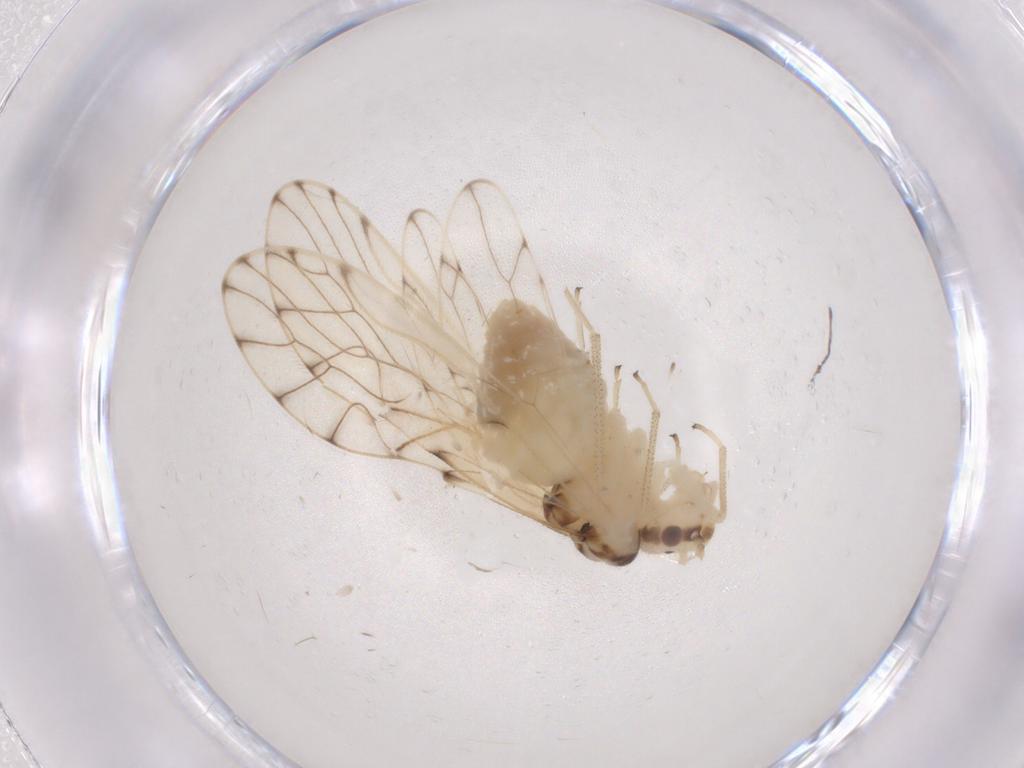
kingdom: Animalia
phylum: Arthropoda
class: Insecta
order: Psocodea
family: Philotarsidae
